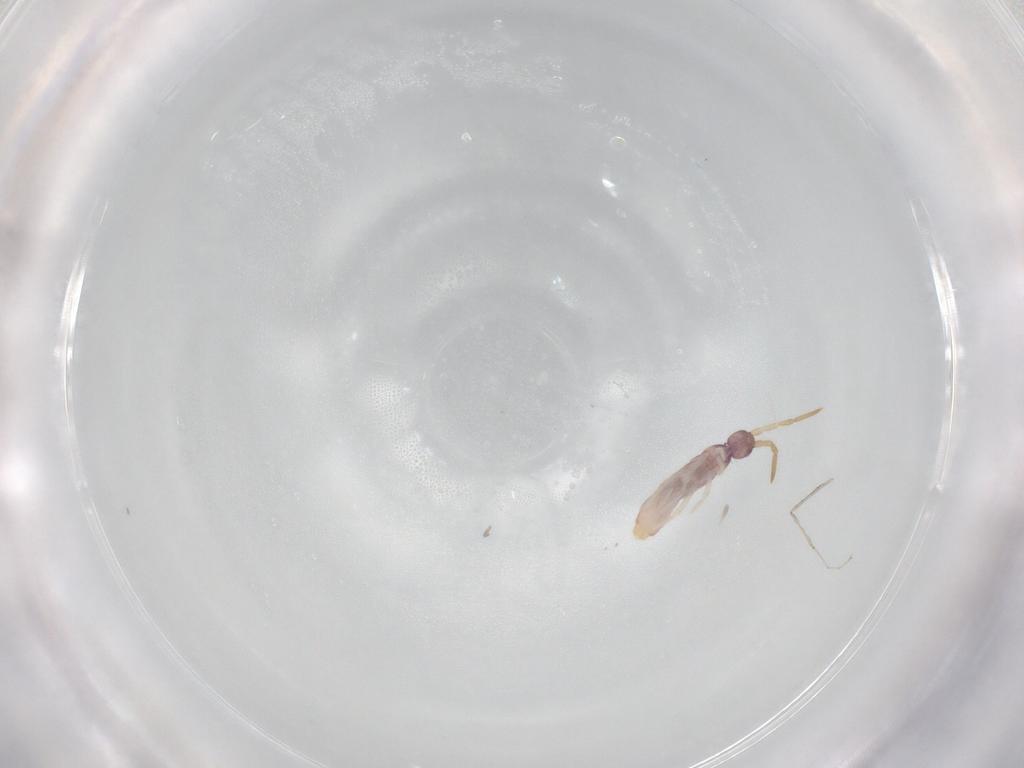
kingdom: Animalia
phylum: Arthropoda
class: Collembola
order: Entomobryomorpha
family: Entomobryidae
